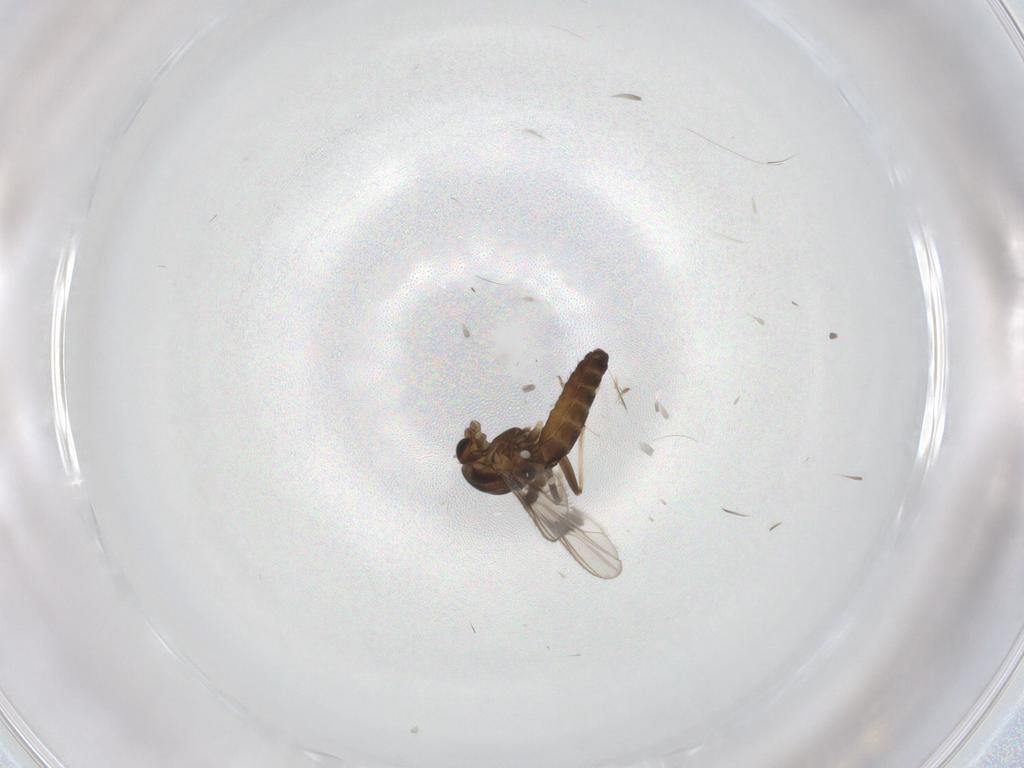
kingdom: Animalia
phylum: Arthropoda
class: Insecta
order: Diptera
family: Chironomidae
